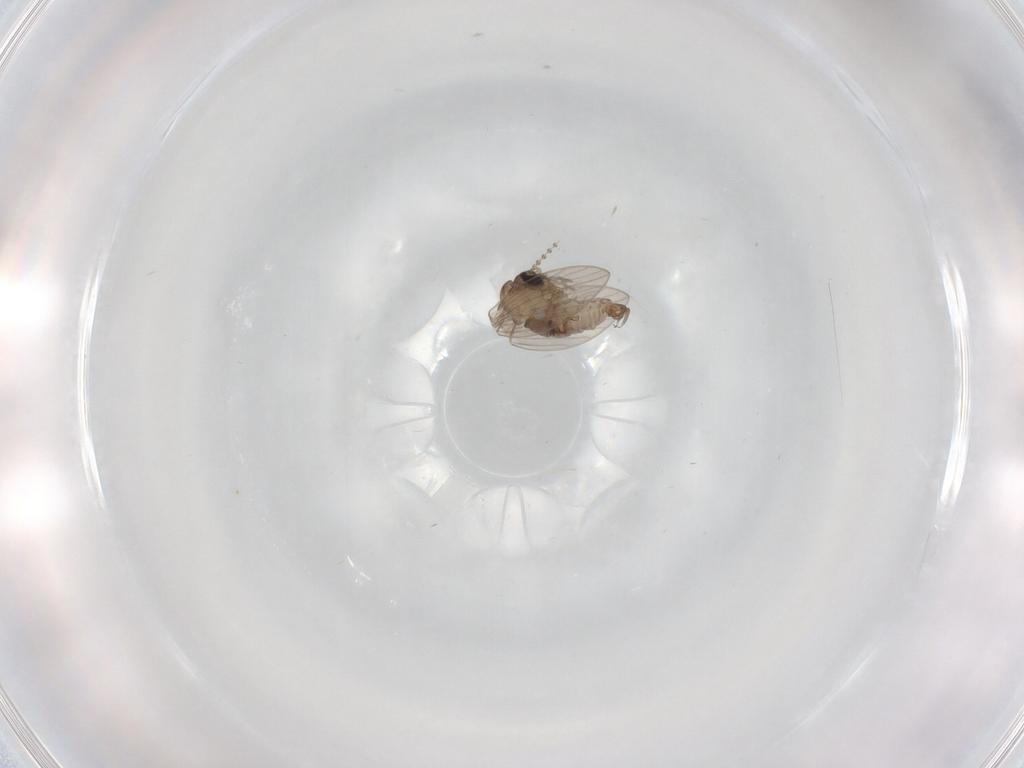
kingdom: Animalia
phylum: Arthropoda
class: Insecta
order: Diptera
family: Psychodidae
